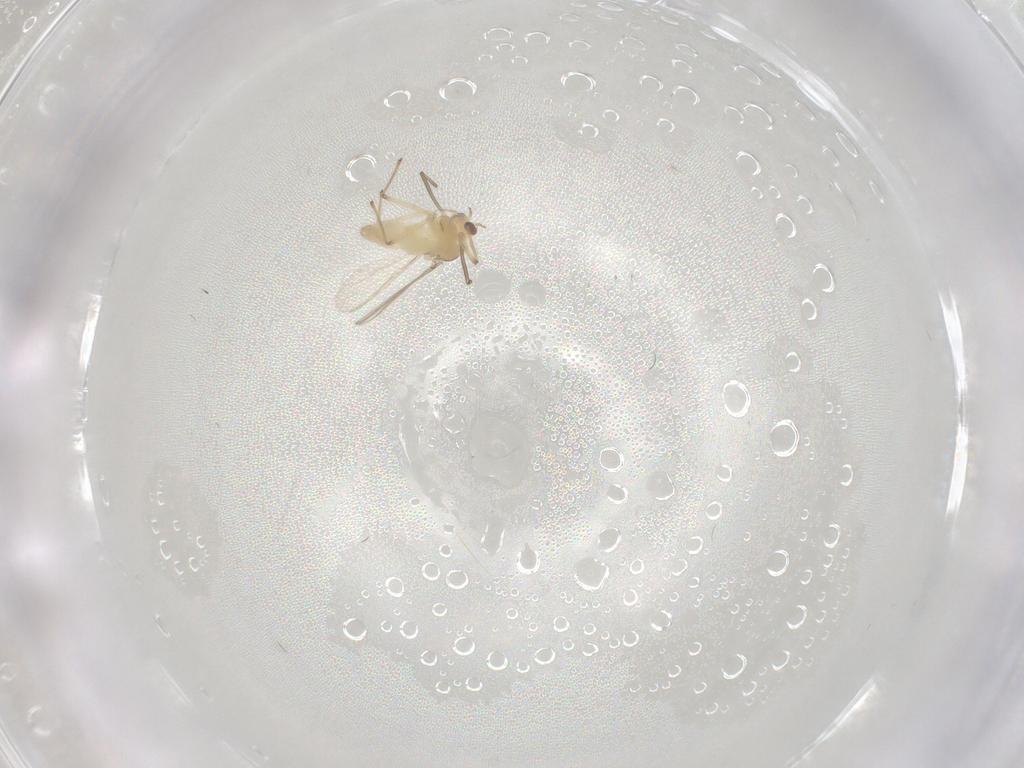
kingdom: Animalia
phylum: Arthropoda
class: Insecta
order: Diptera
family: Chironomidae
